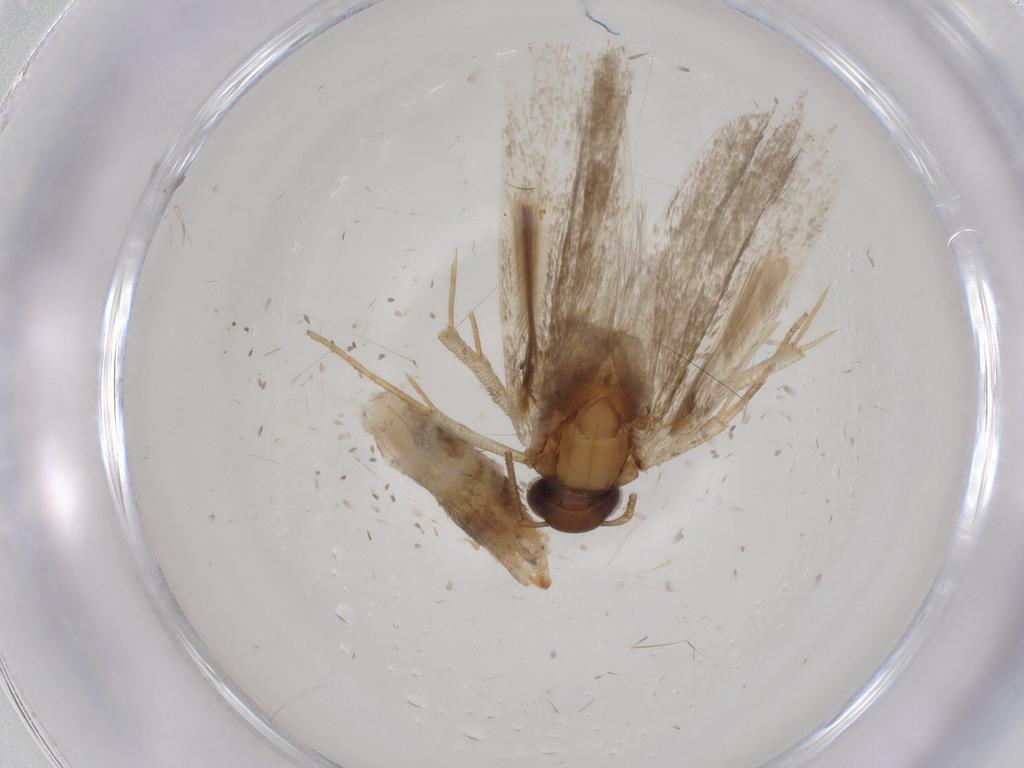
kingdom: Animalia
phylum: Arthropoda
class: Insecta
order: Lepidoptera
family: Gelechiidae
